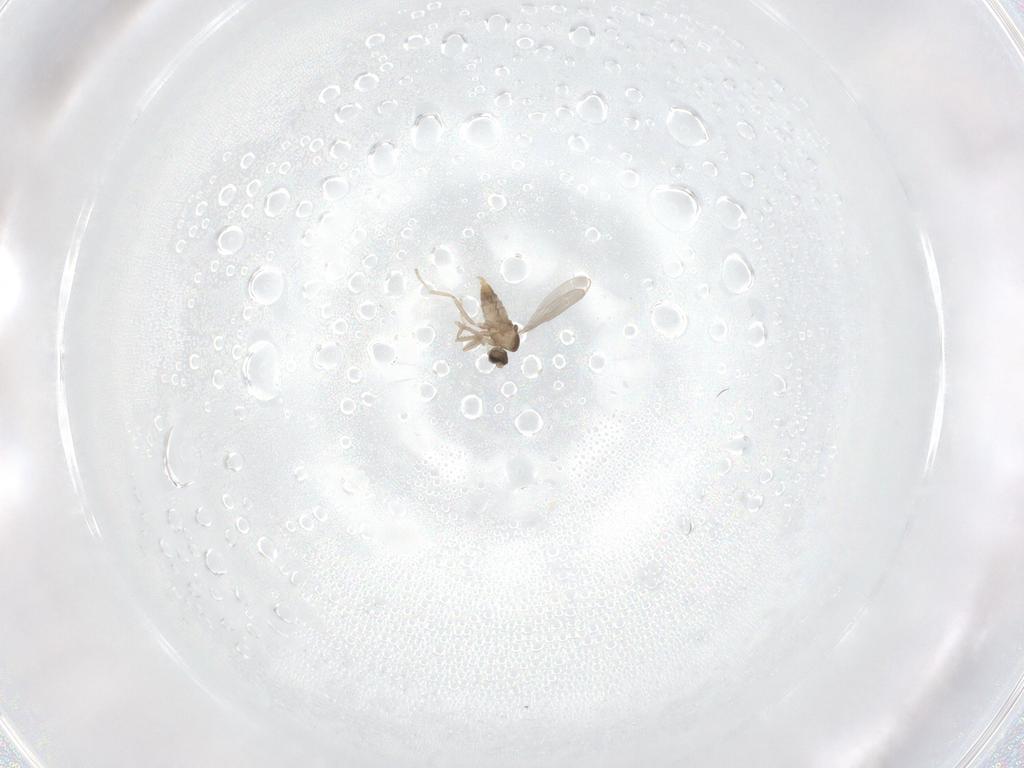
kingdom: Animalia
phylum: Arthropoda
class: Insecta
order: Diptera
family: Cecidomyiidae
